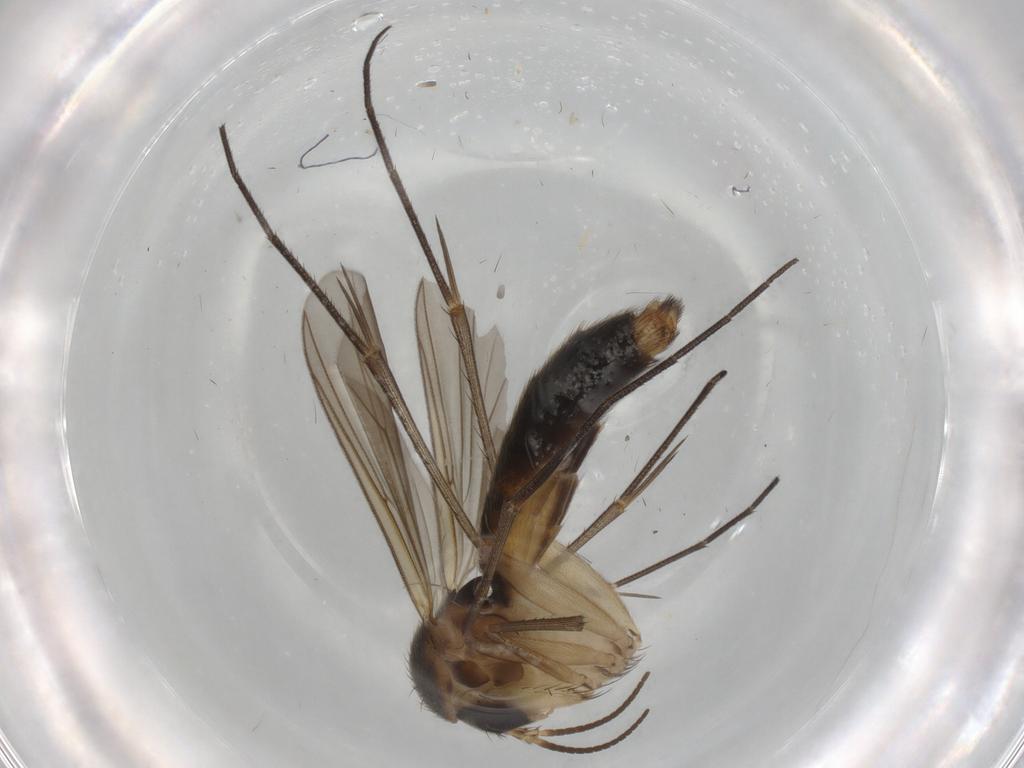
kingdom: Animalia
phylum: Arthropoda
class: Insecta
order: Diptera
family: Mycetophilidae
